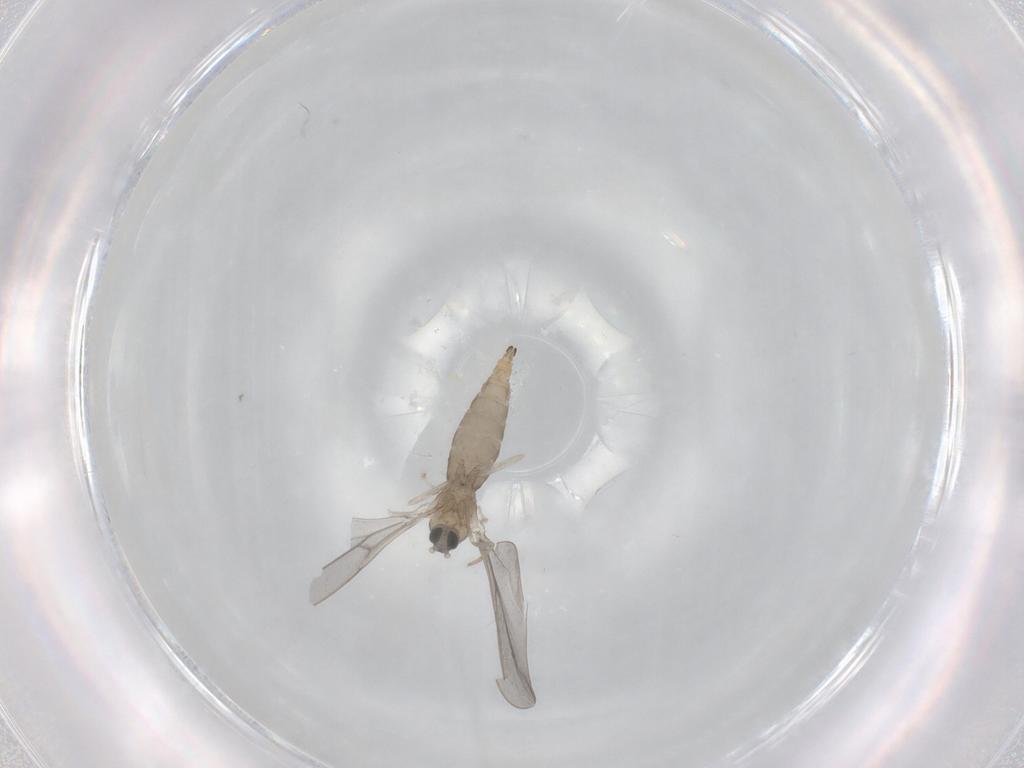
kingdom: Animalia
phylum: Arthropoda
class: Insecta
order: Diptera
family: Cecidomyiidae
